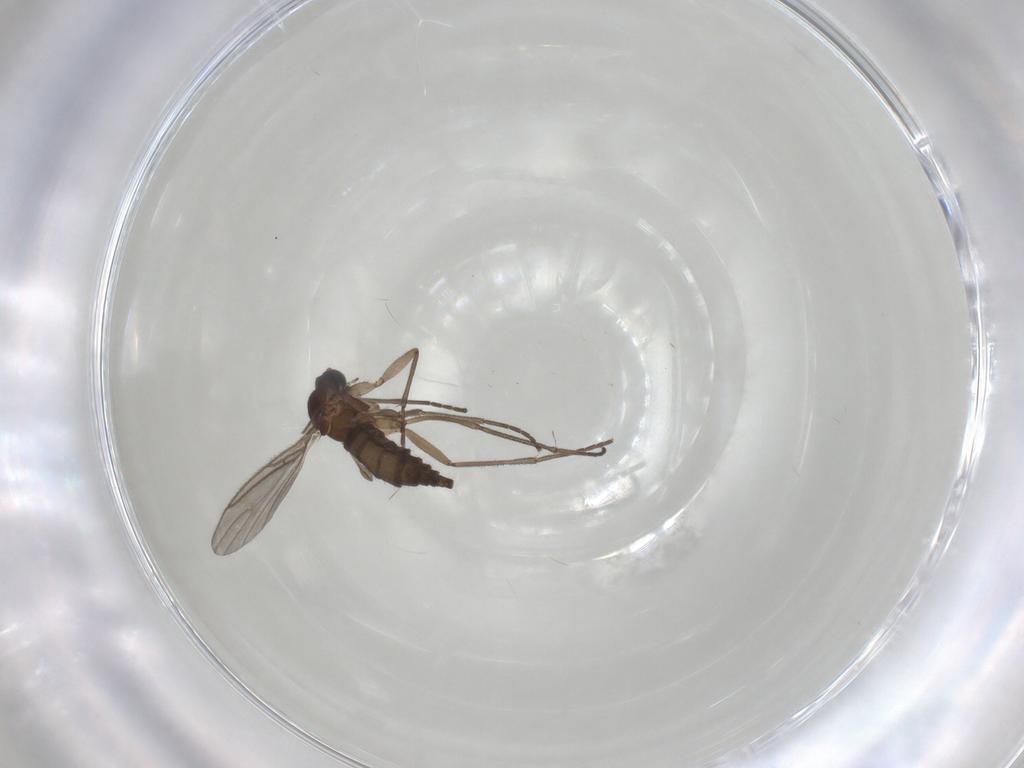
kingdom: Animalia
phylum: Arthropoda
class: Insecta
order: Diptera
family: Sciaridae
